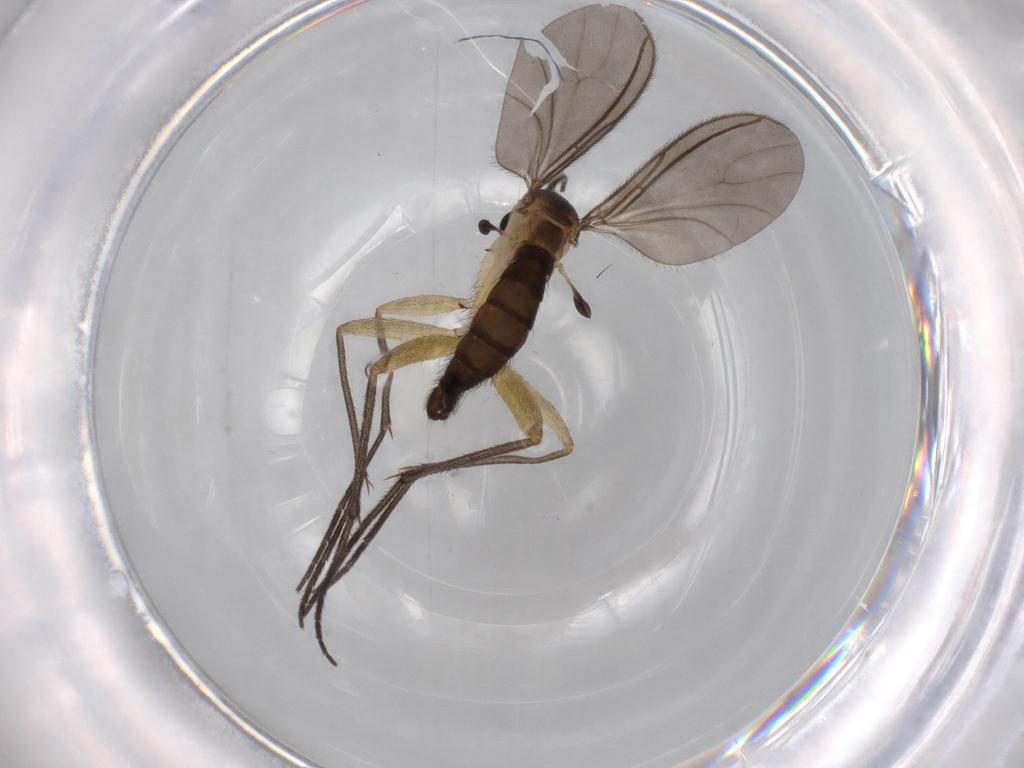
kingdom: Animalia
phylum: Arthropoda
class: Insecta
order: Diptera
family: Sciaridae
